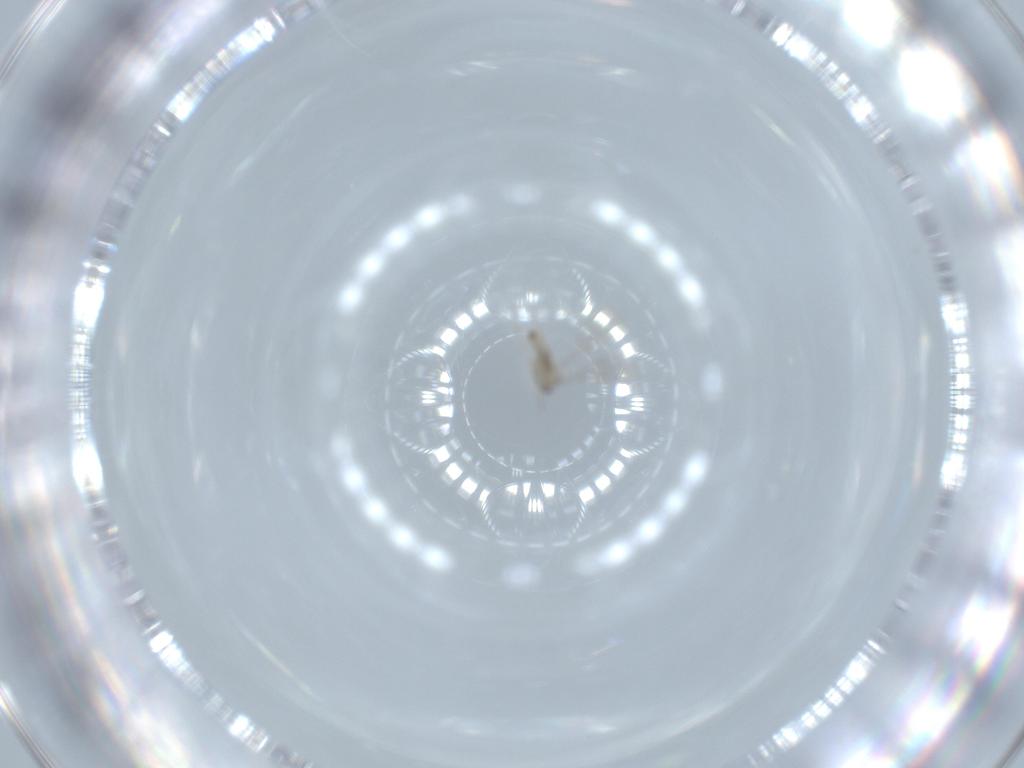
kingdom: Animalia
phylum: Arthropoda
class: Insecta
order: Diptera
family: Cecidomyiidae
